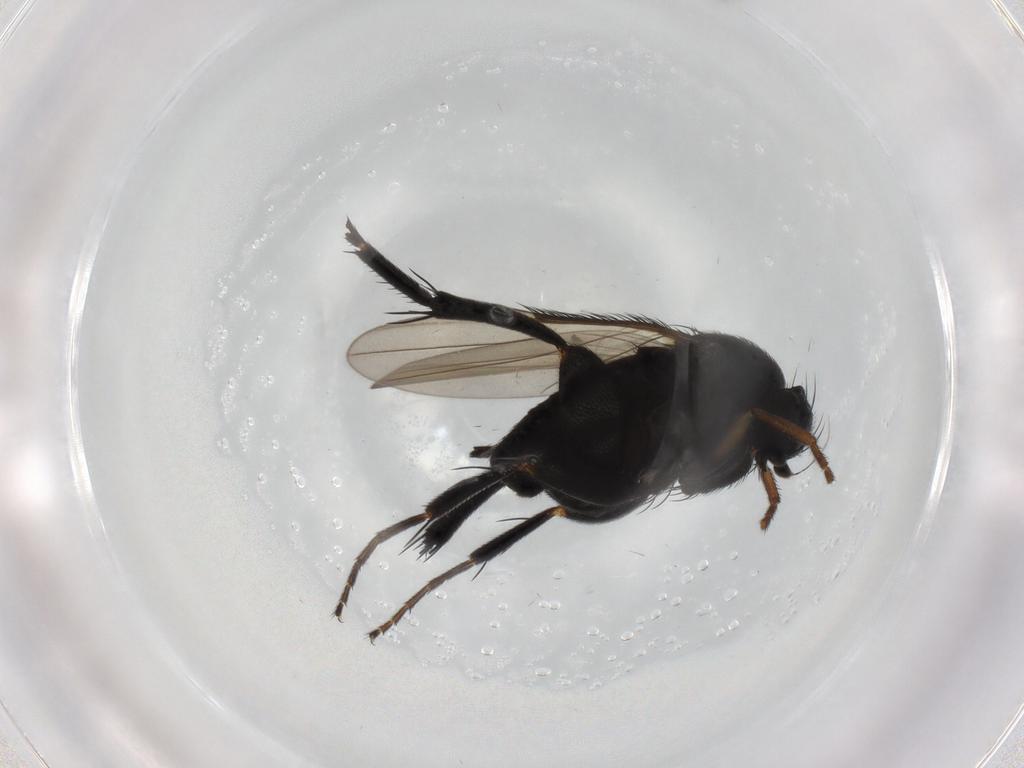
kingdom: Animalia
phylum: Arthropoda
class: Insecta
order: Diptera
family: Phoridae
